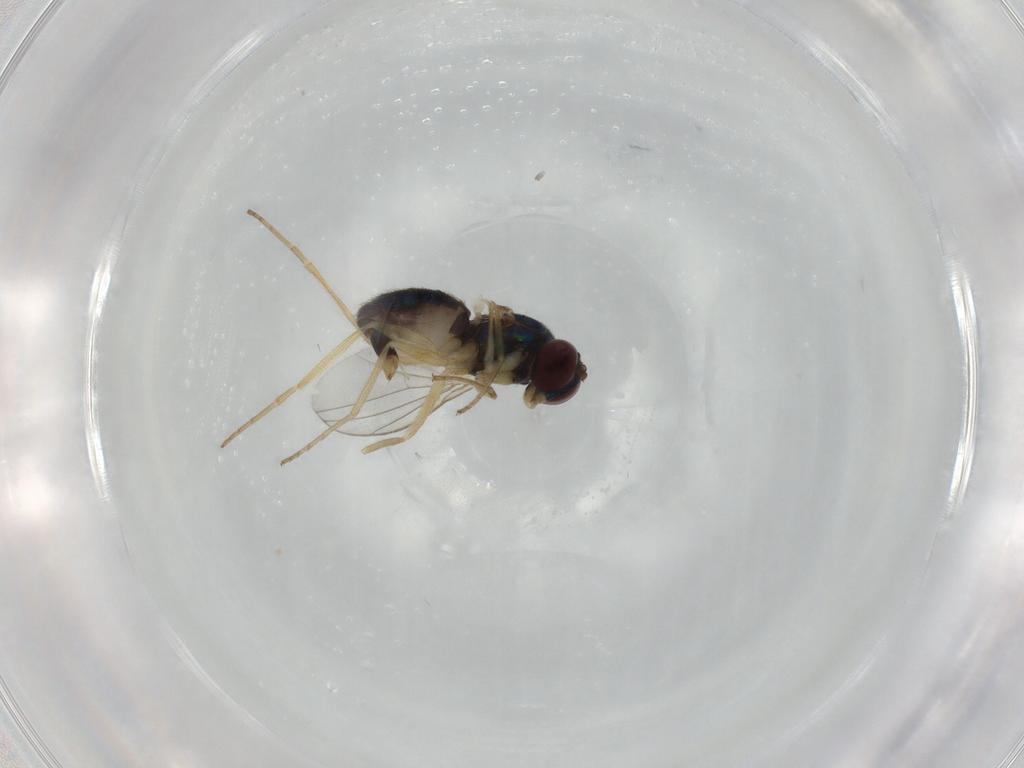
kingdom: Animalia
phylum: Arthropoda
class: Insecta
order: Diptera
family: Dolichopodidae
